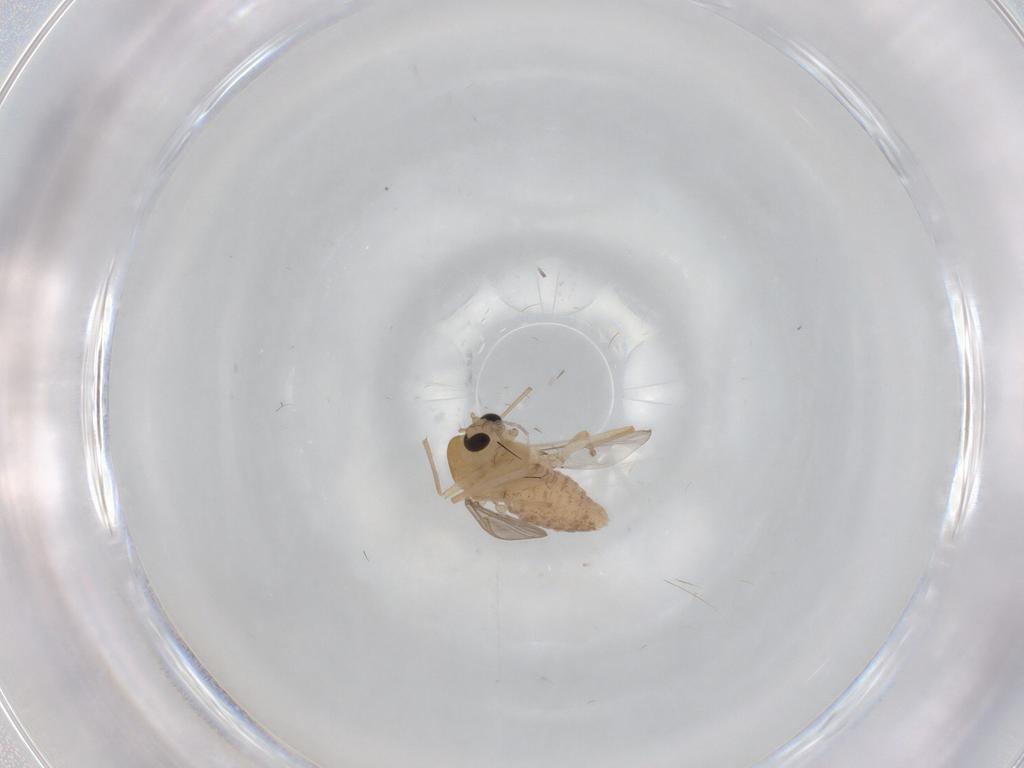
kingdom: Animalia
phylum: Arthropoda
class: Insecta
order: Diptera
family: Chironomidae
